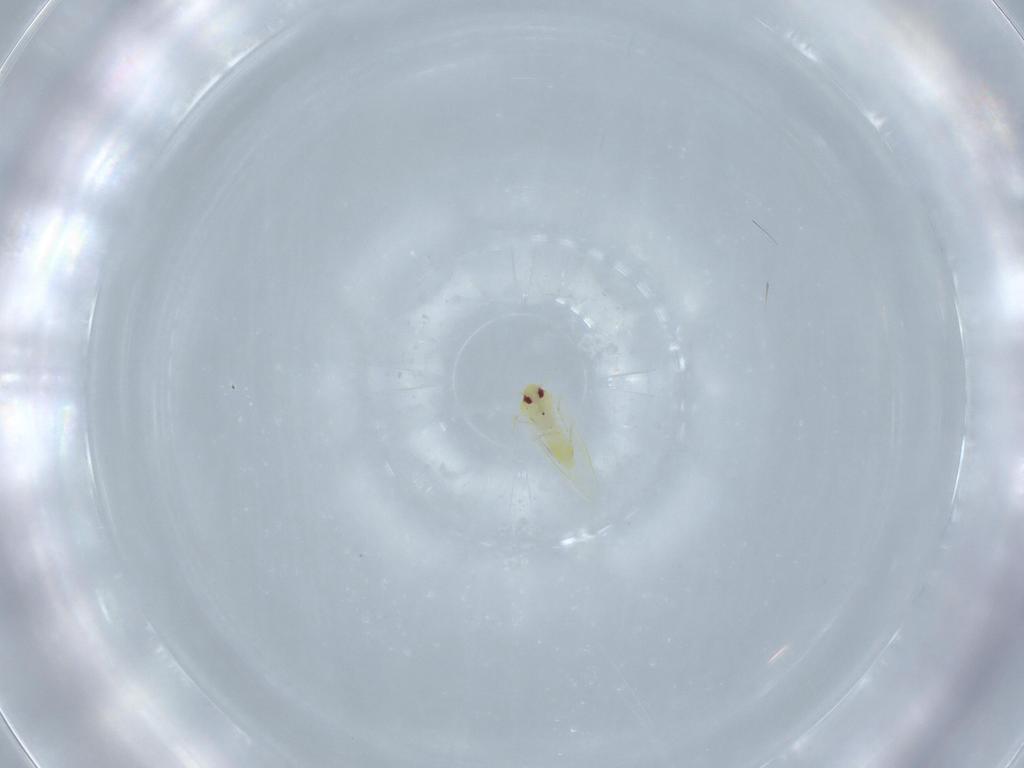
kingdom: Animalia
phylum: Arthropoda
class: Insecta
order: Hemiptera
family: Aleyrodidae
